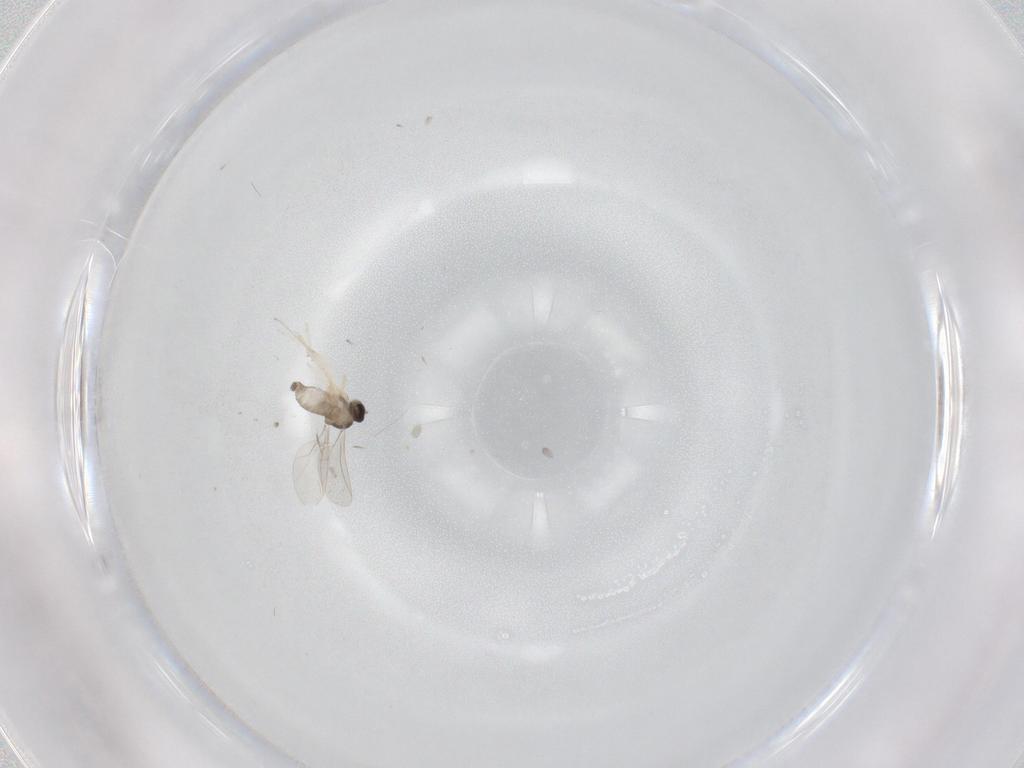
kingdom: Animalia
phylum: Arthropoda
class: Insecta
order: Diptera
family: Cecidomyiidae
